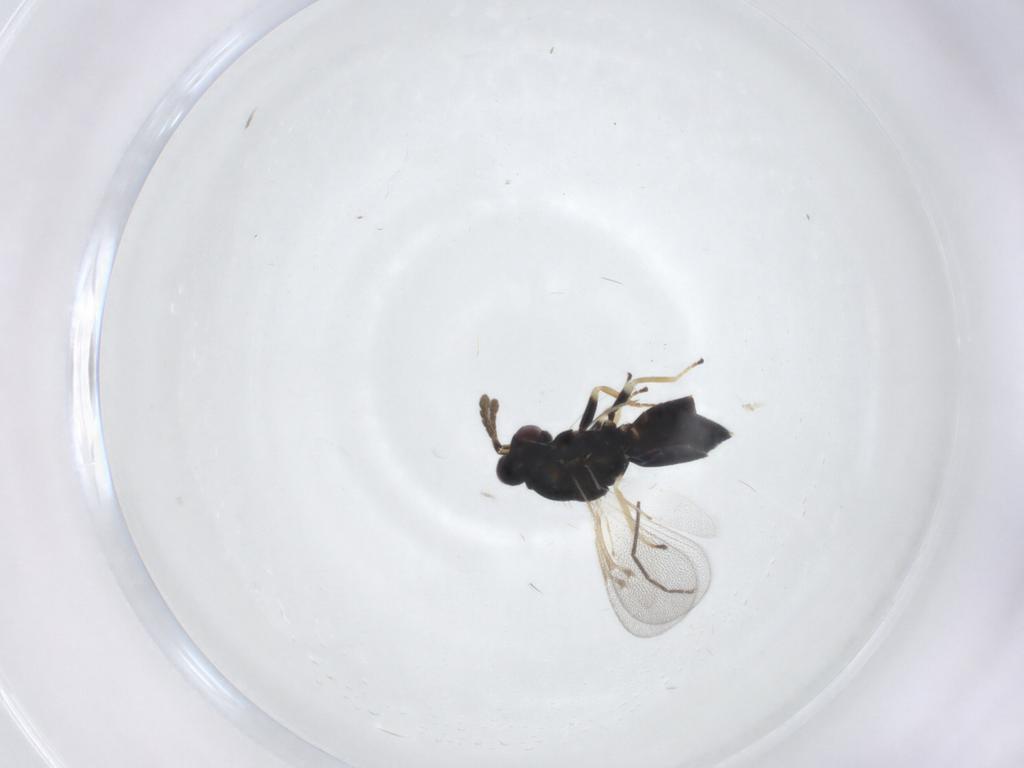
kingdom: Animalia
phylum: Arthropoda
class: Insecta
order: Hymenoptera
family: Eulophidae
